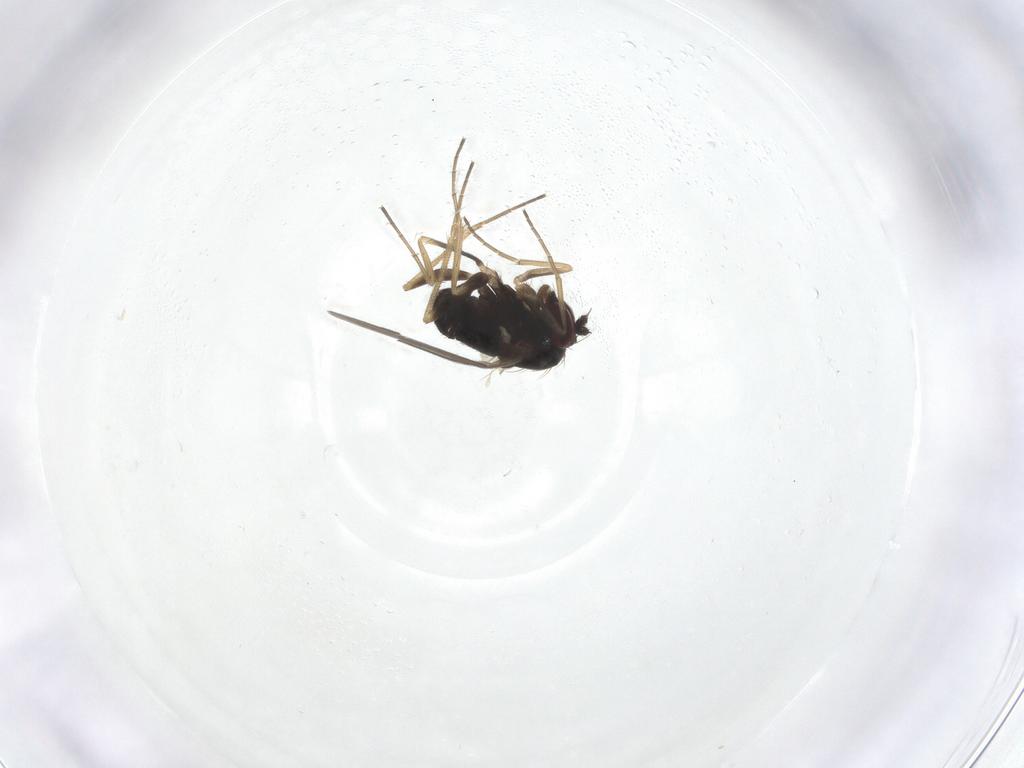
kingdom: Animalia
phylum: Arthropoda
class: Insecta
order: Diptera
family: Dolichopodidae
